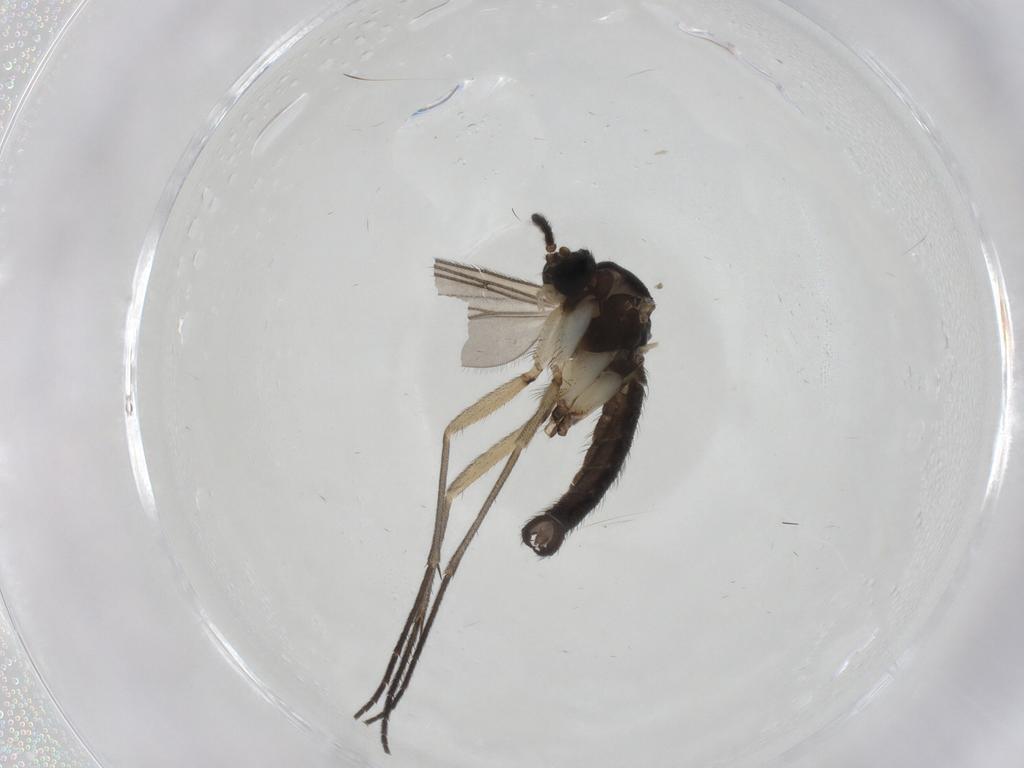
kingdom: Animalia
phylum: Arthropoda
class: Insecta
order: Diptera
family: Sciaridae
